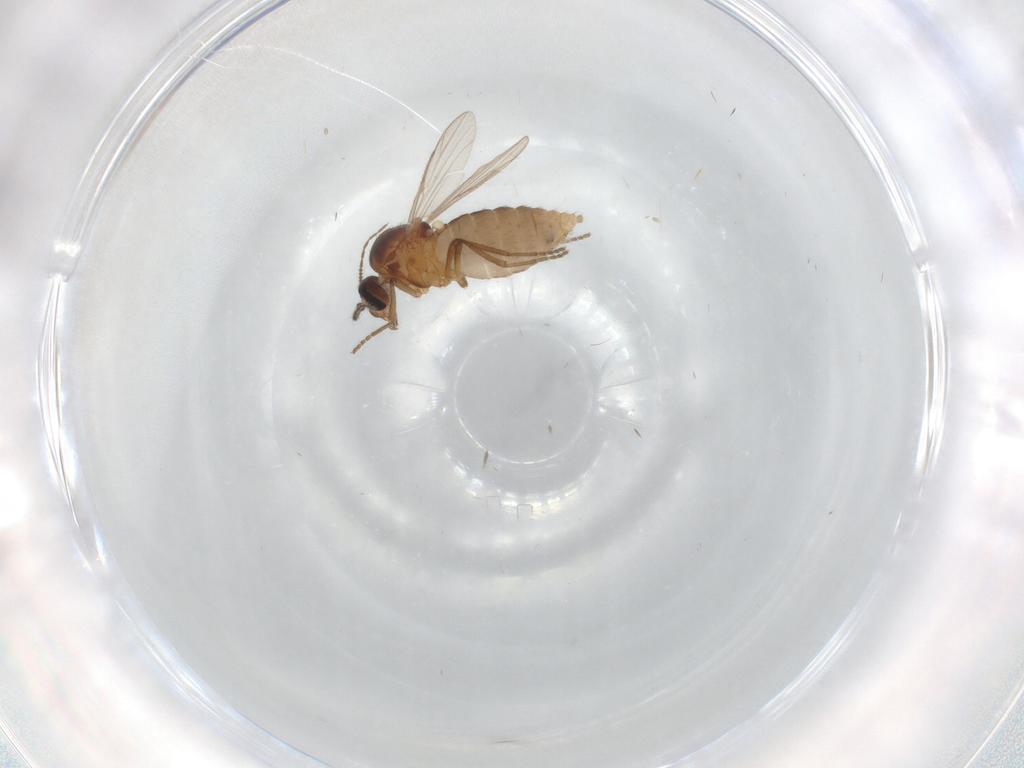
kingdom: Animalia
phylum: Arthropoda
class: Insecta
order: Diptera
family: Ceratopogonidae
